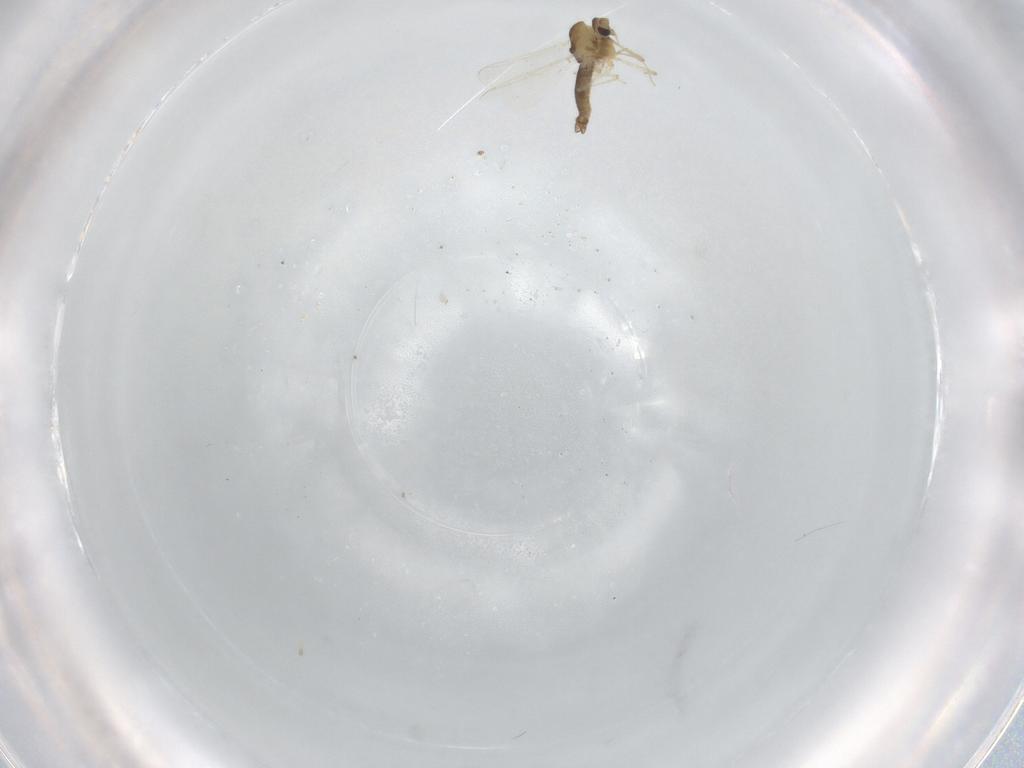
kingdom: Animalia
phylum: Arthropoda
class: Insecta
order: Diptera
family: Chironomidae
